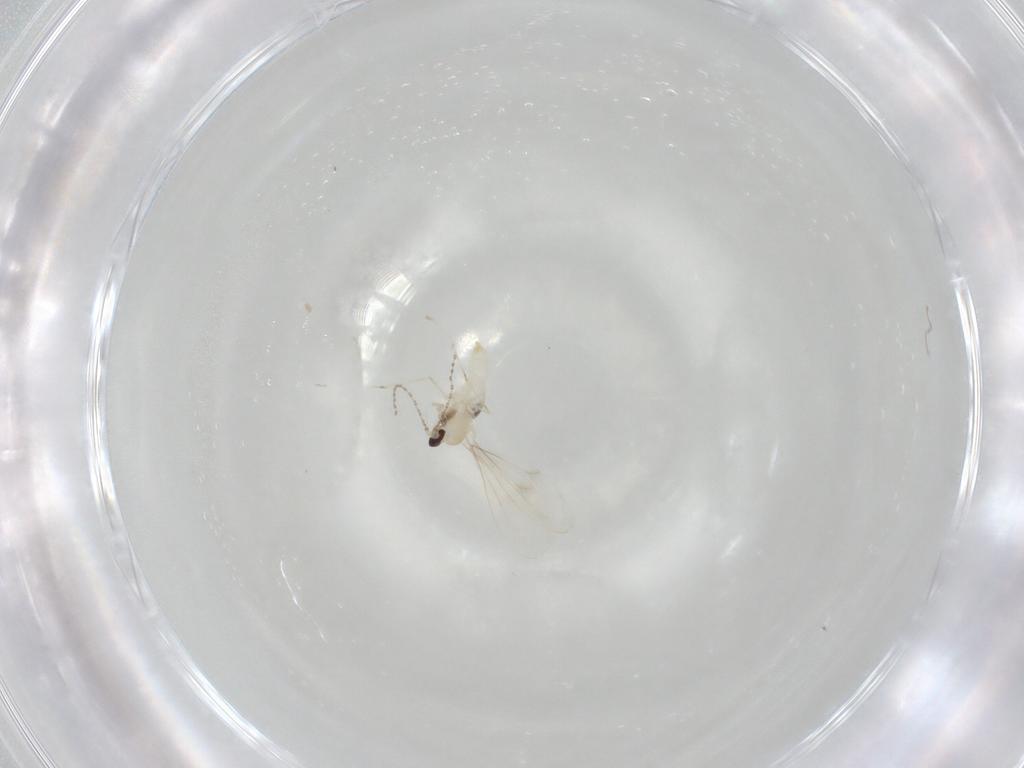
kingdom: Animalia
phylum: Arthropoda
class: Insecta
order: Diptera
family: Cecidomyiidae
